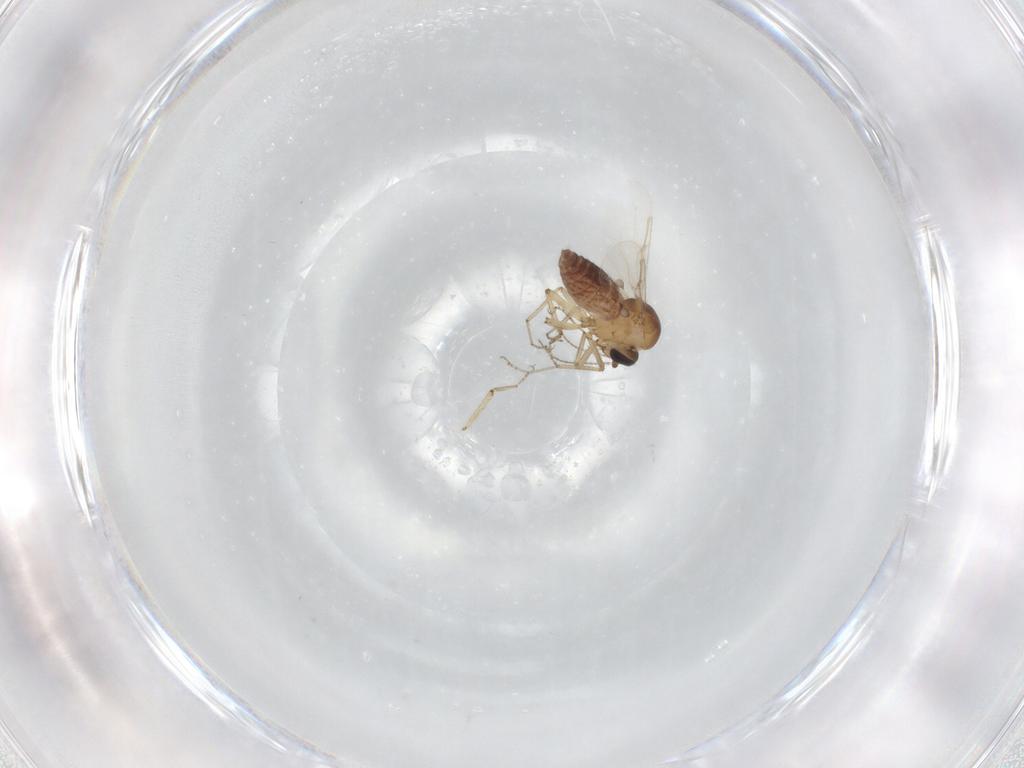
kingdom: Animalia
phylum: Arthropoda
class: Insecta
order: Diptera
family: Ceratopogonidae
